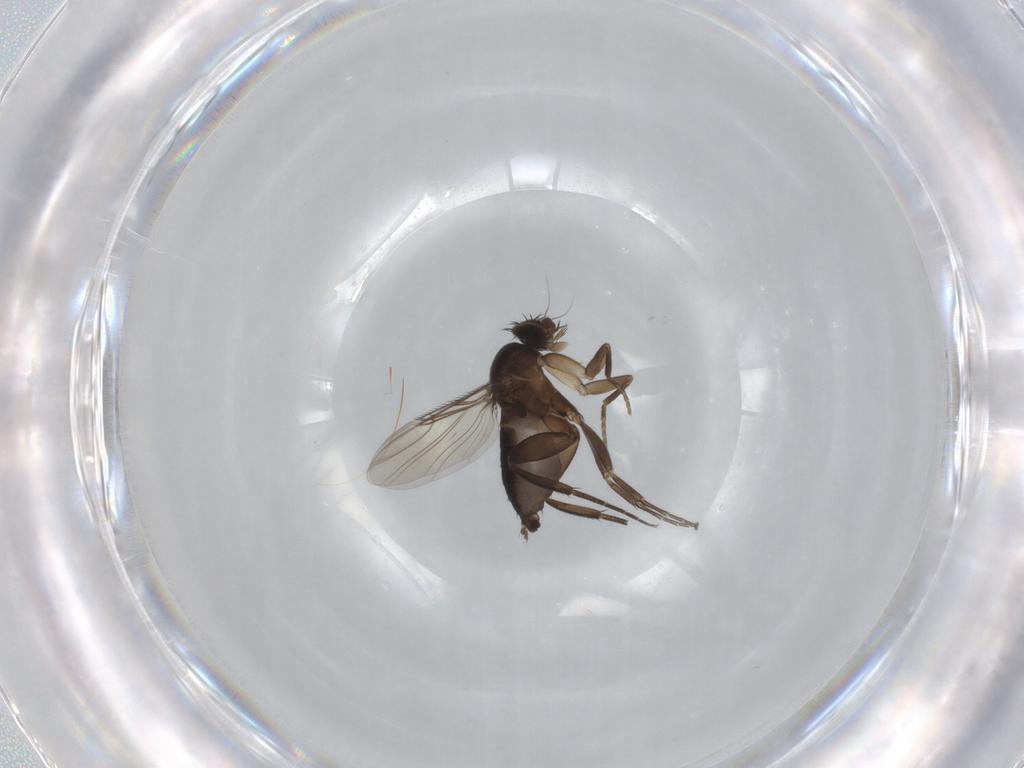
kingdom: Animalia
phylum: Arthropoda
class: Insecta
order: Diptera
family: Phoridae
